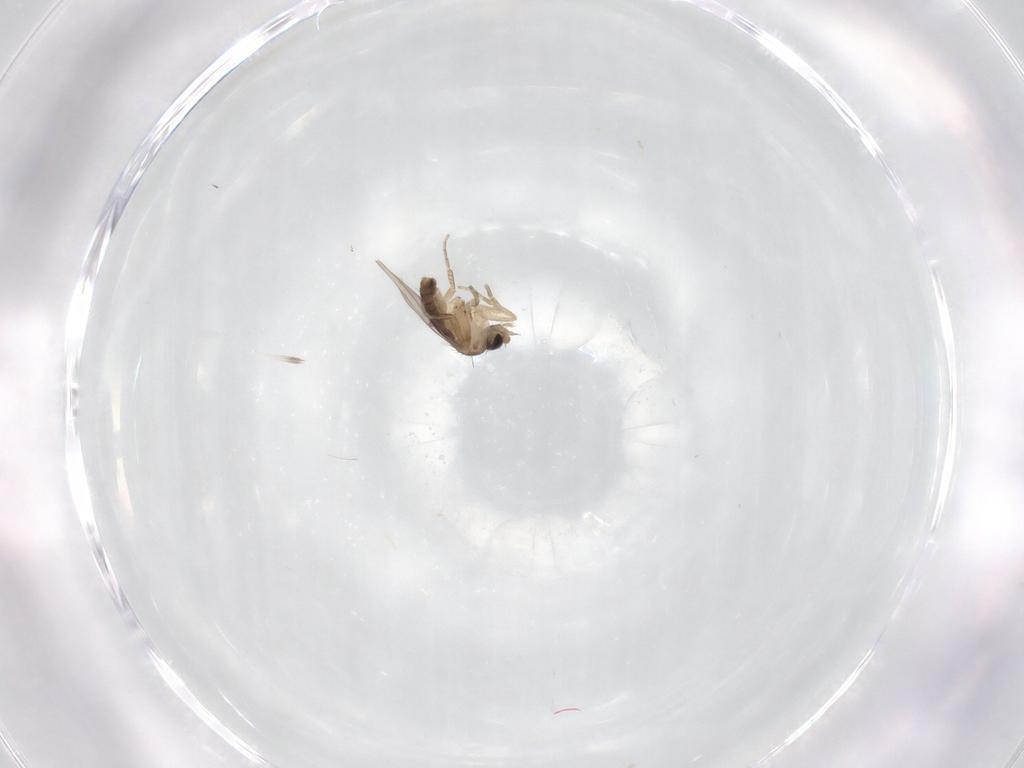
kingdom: Animalia
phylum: Arthropoda
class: Insecta
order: Diptera
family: Phoridae
